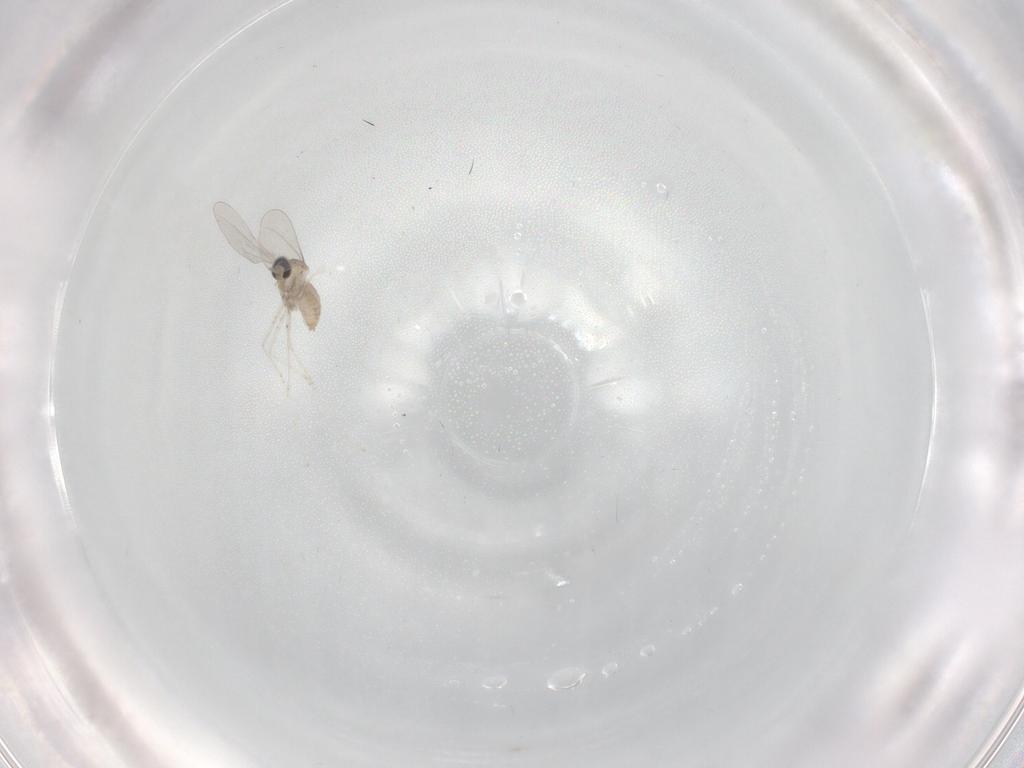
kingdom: Animalia
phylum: Arthropoda
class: Insecta
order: Diptera
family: Cecidomyiidae
